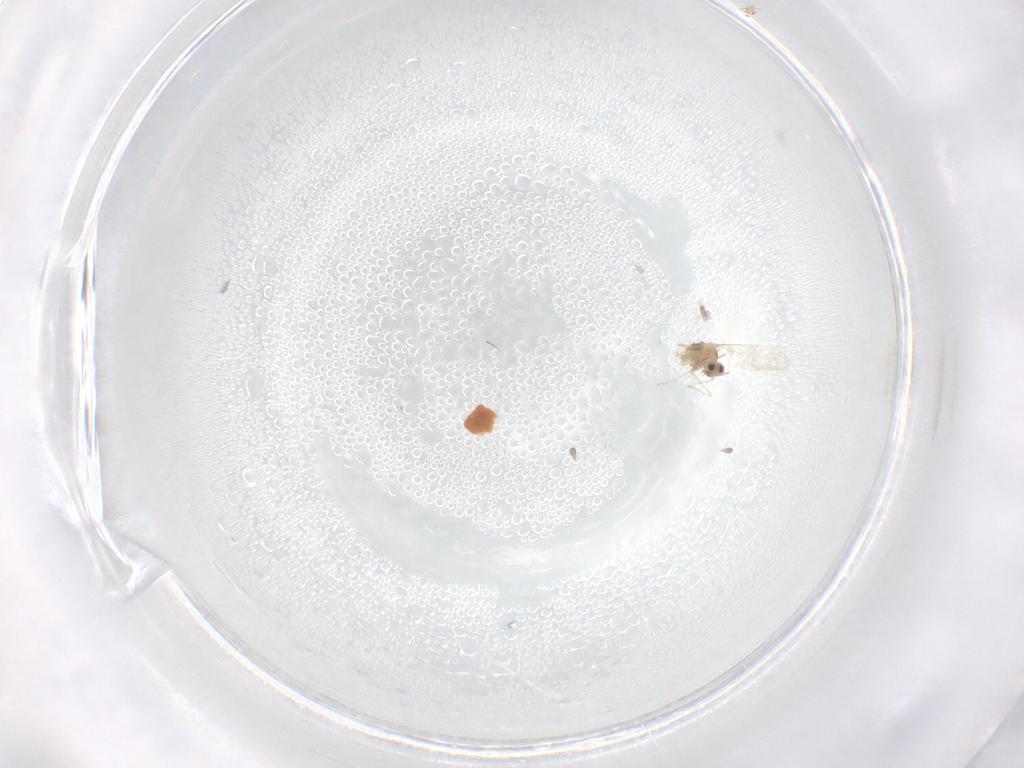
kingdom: Animalia
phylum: Arthropoda
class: Insecta
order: Diptera
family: Cecidomyiidae
